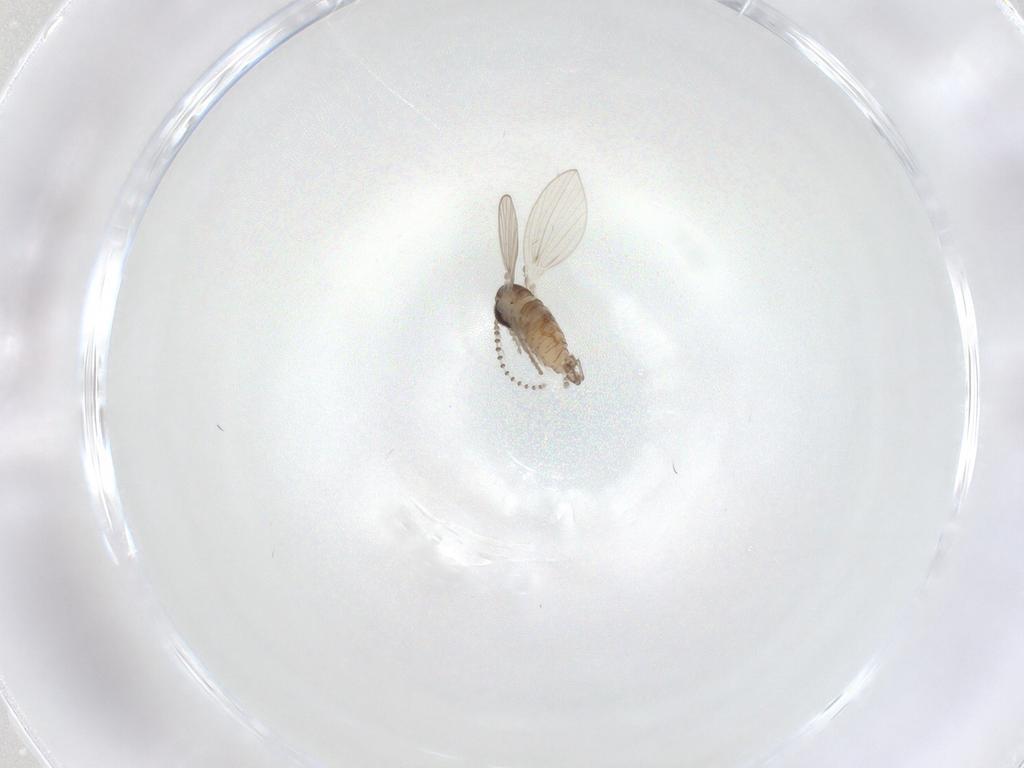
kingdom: Animalia
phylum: Arthropoda
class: Insecta
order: Diptera
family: Psychodidae
